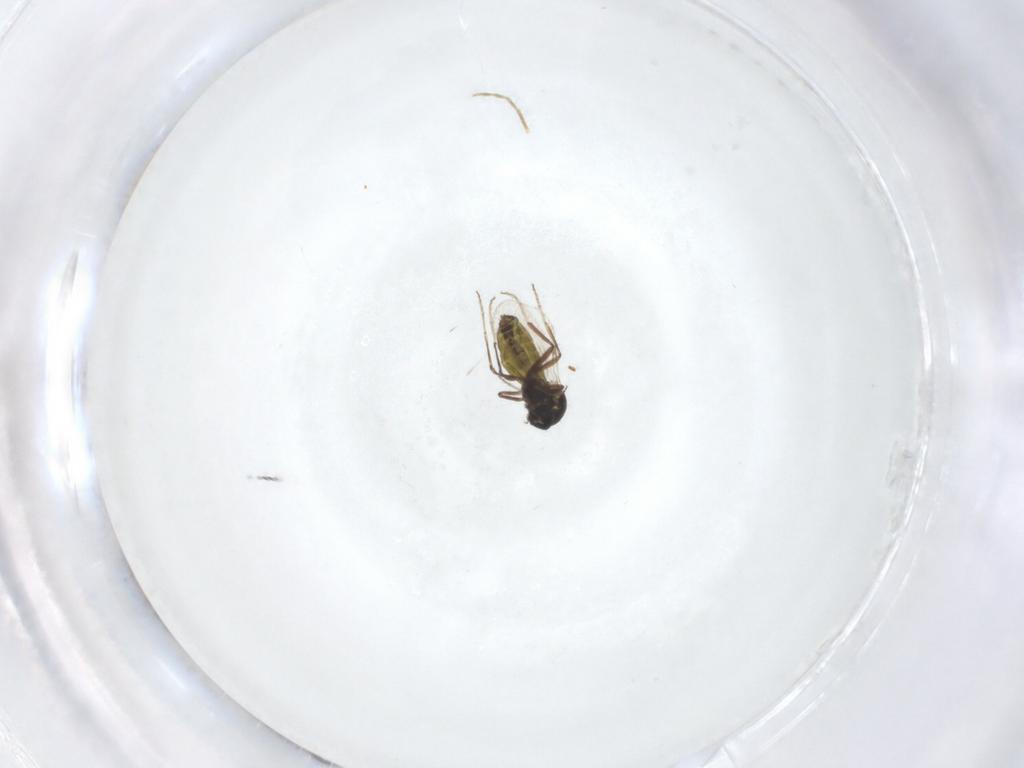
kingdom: Animalia
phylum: Arthropoda
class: Insecta
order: Diptera
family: Ceratopogonidae
